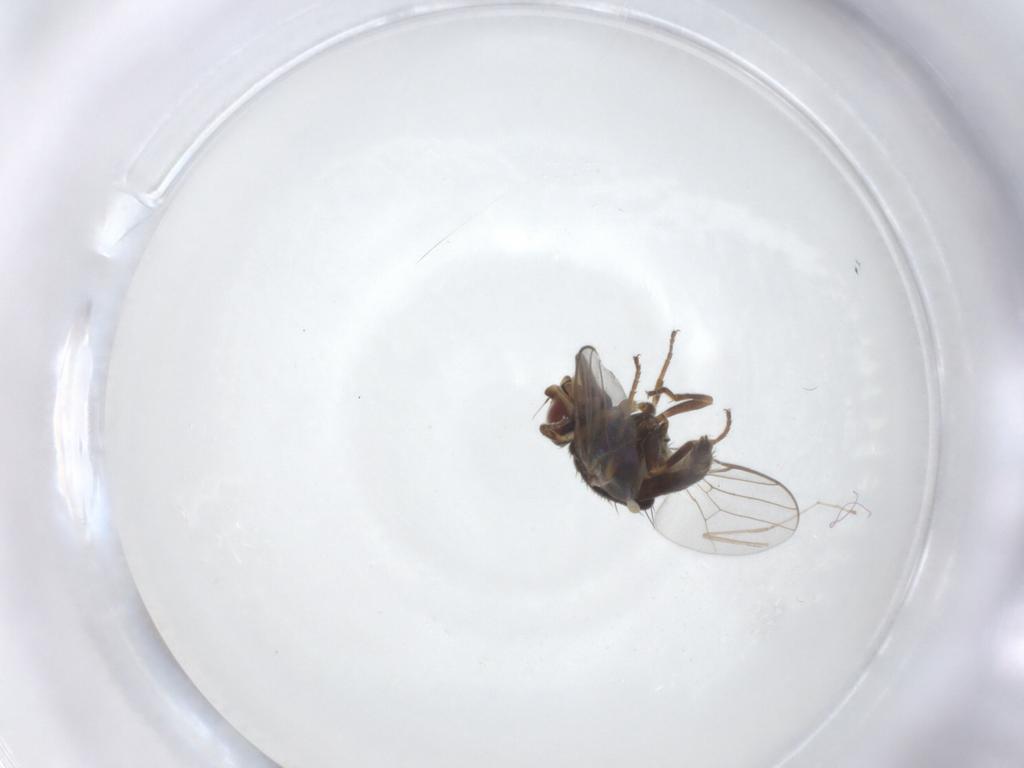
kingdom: Animalia
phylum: Arthropoda
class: Insecta
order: Diptera
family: Chloropidae
